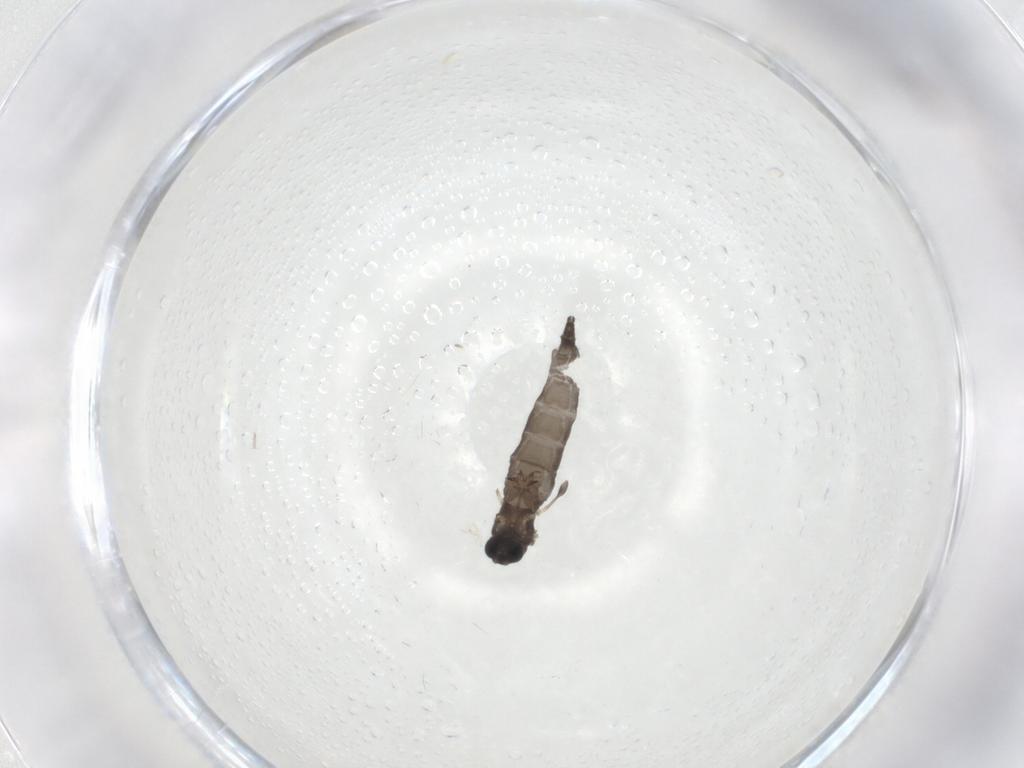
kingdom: Animalia
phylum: Arthropoda
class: Insecta
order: Diptera
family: Sciaridae
